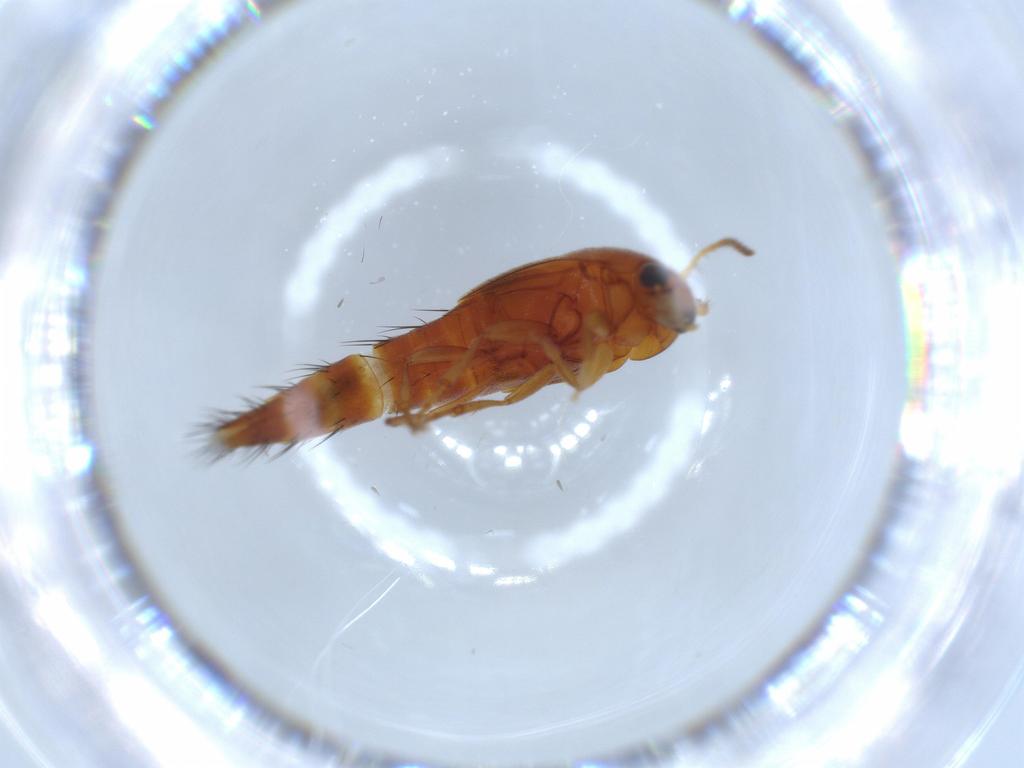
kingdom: Animalia
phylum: Arthropoda
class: Insecta
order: Coleoptera
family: Staphylinidae
